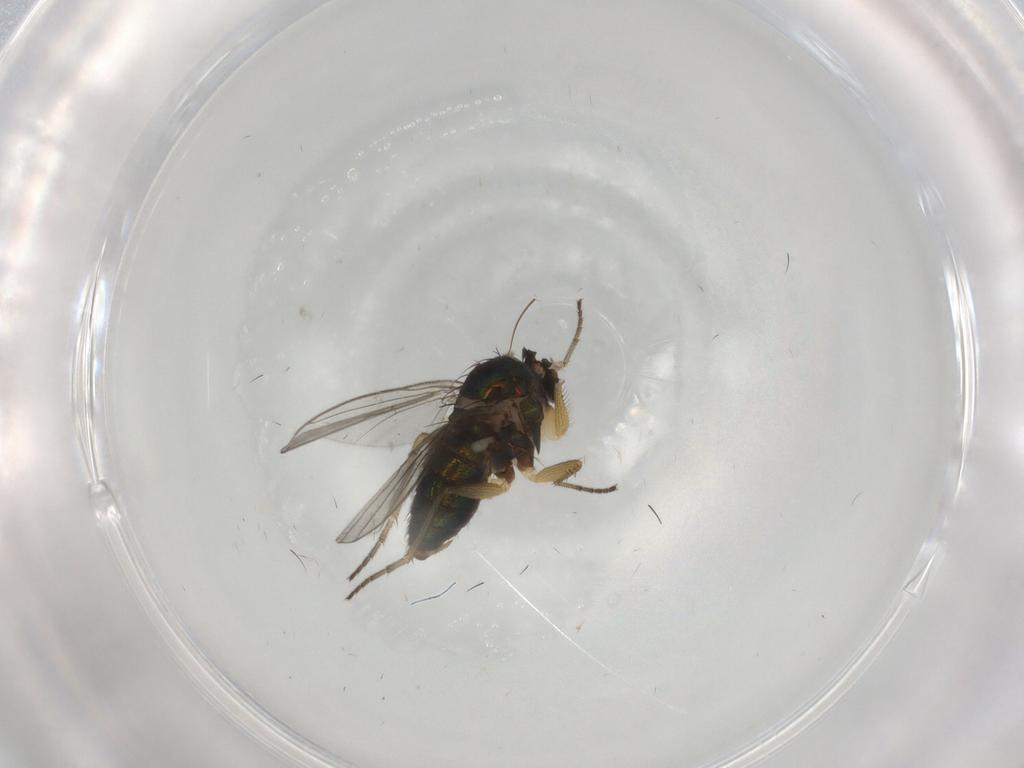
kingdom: Animalia
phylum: Arthropoda
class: Insecta
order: Diptera
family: Dolichopodidae
